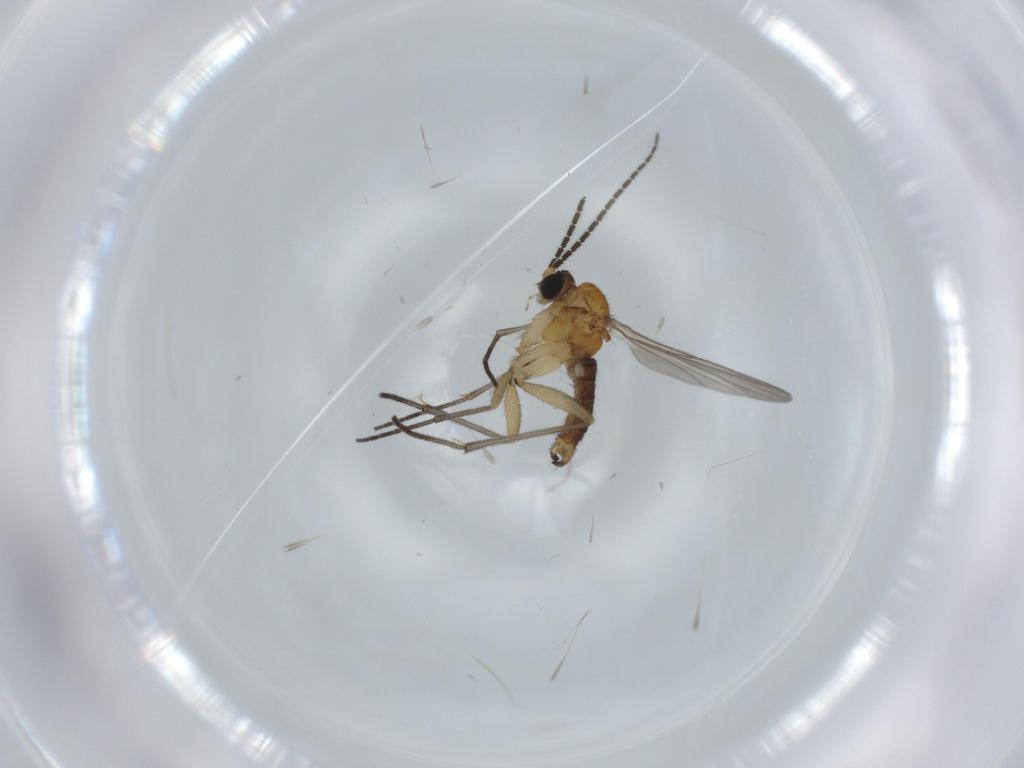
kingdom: Animalia
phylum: Arthropoda
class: Insecta
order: Diptera
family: Sciaridae
